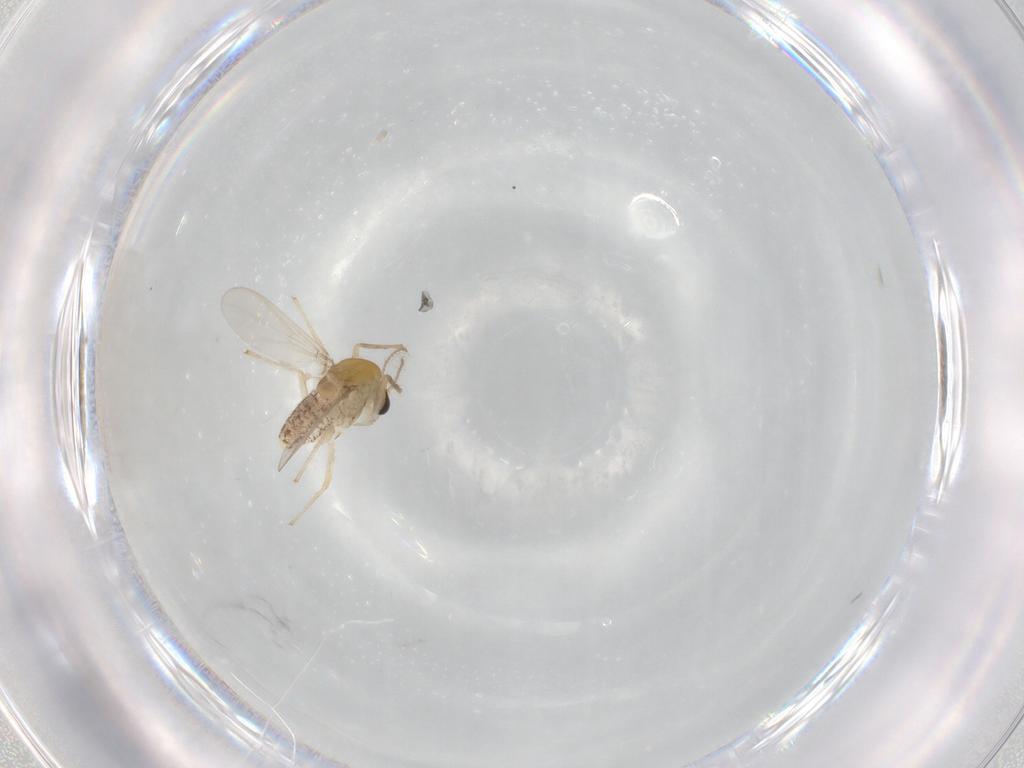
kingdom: Animalia
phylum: Arthropoda
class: Insecta
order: Diptera
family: Chironomidae
